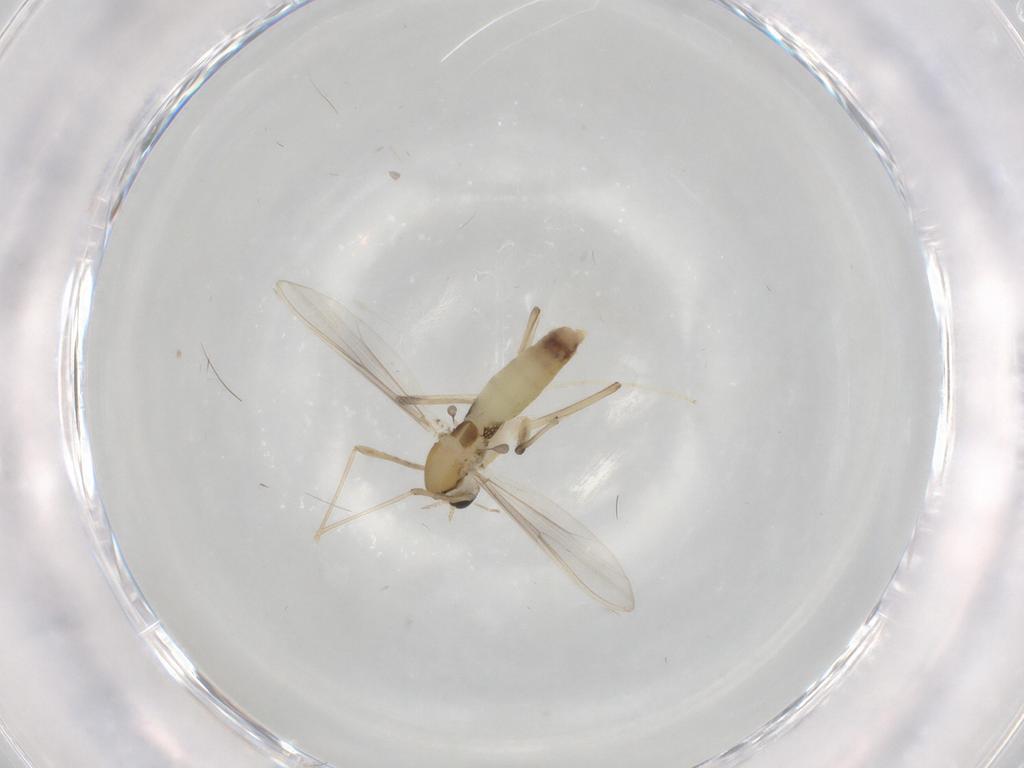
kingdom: Animalia
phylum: Arthropoda
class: Insecta
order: Diptera
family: Chironomidae
